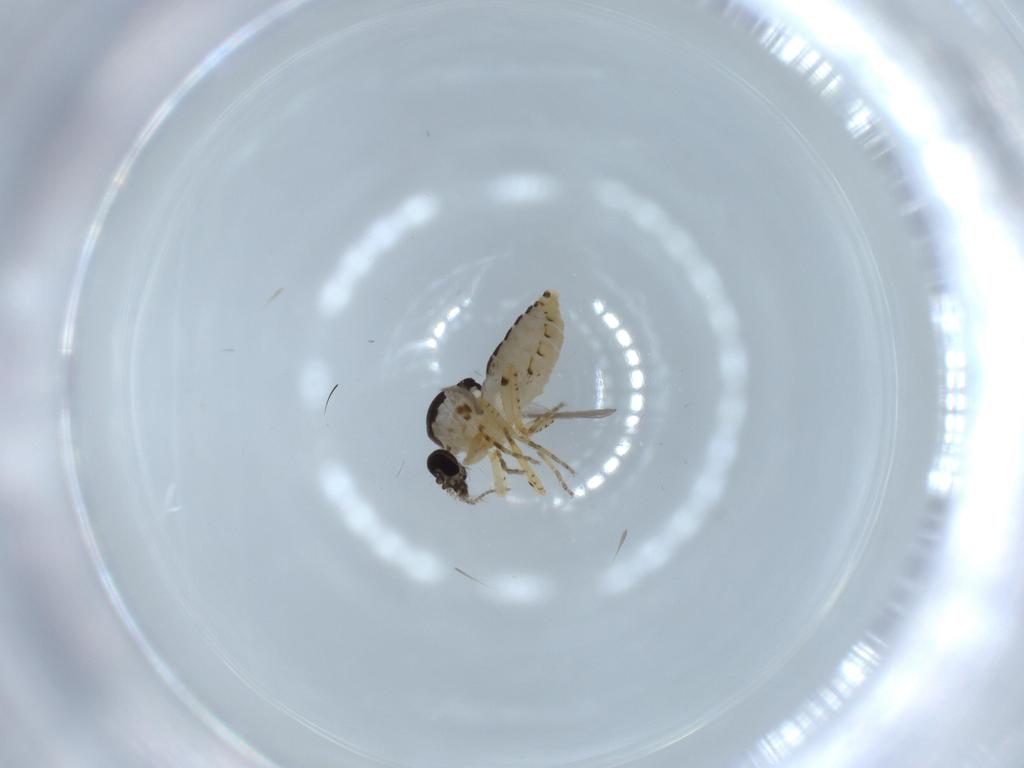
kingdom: Animalia
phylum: Arthropoda
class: Insecta
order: Diptera
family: Ceratopogonidae
